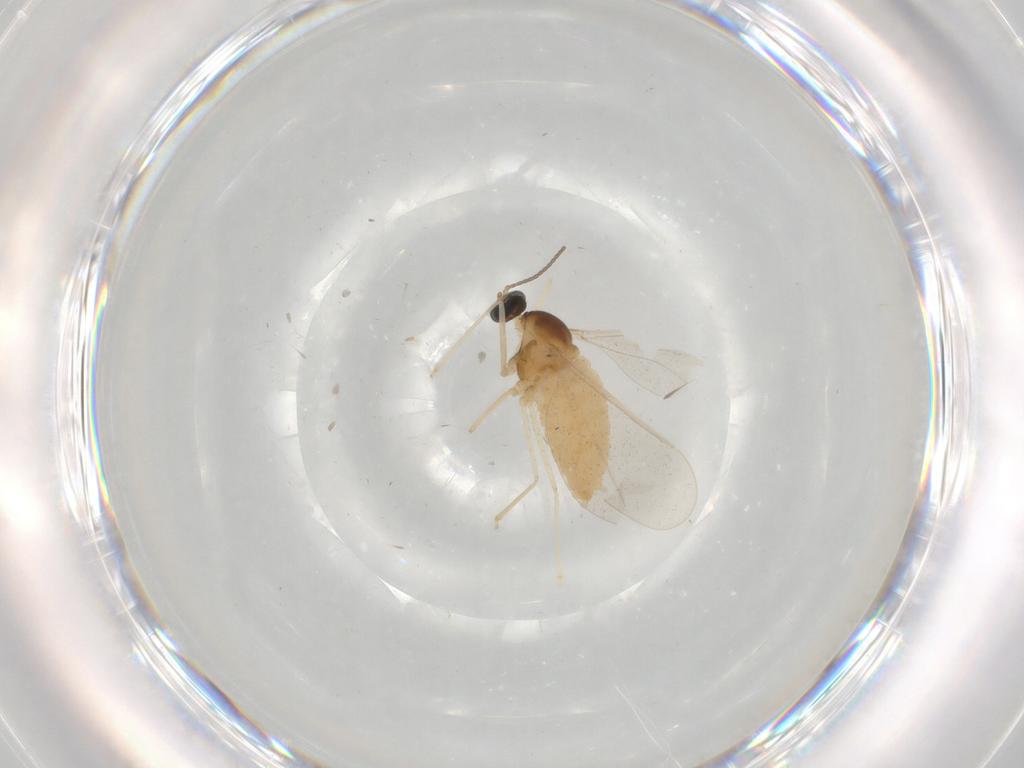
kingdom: Animalia
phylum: Arthropoda
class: Insecta
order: Diptera
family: Cecidomyiidae
